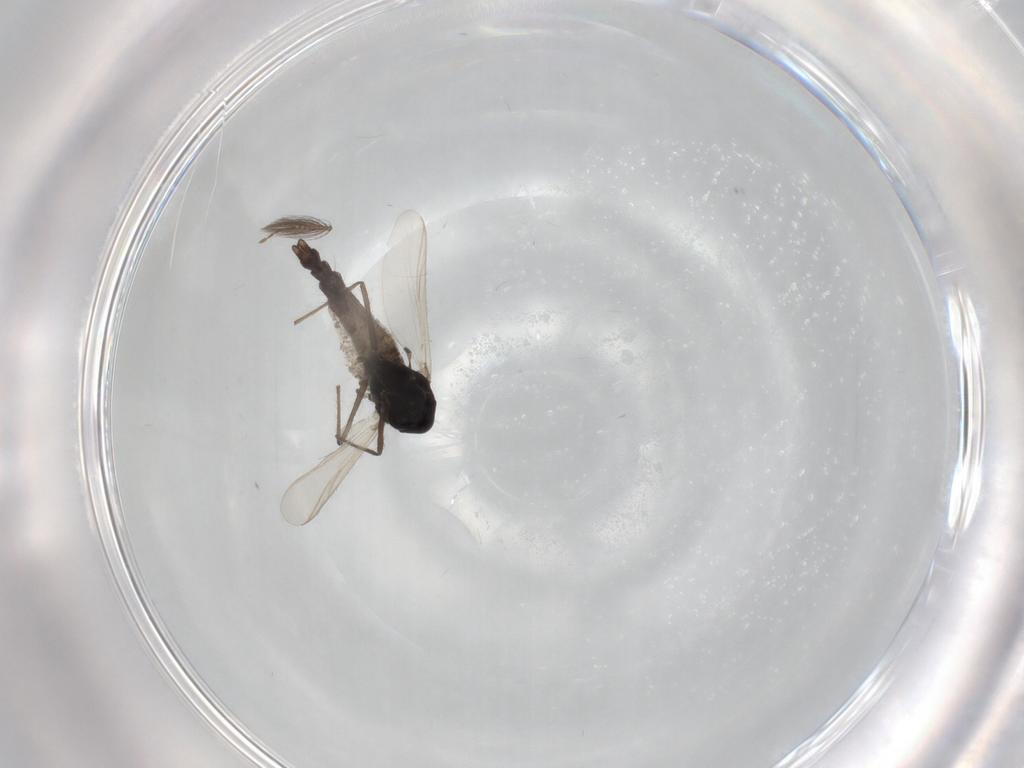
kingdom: Animalia
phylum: Arthropoda
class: Insecta
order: Diptera
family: Chironomidae
